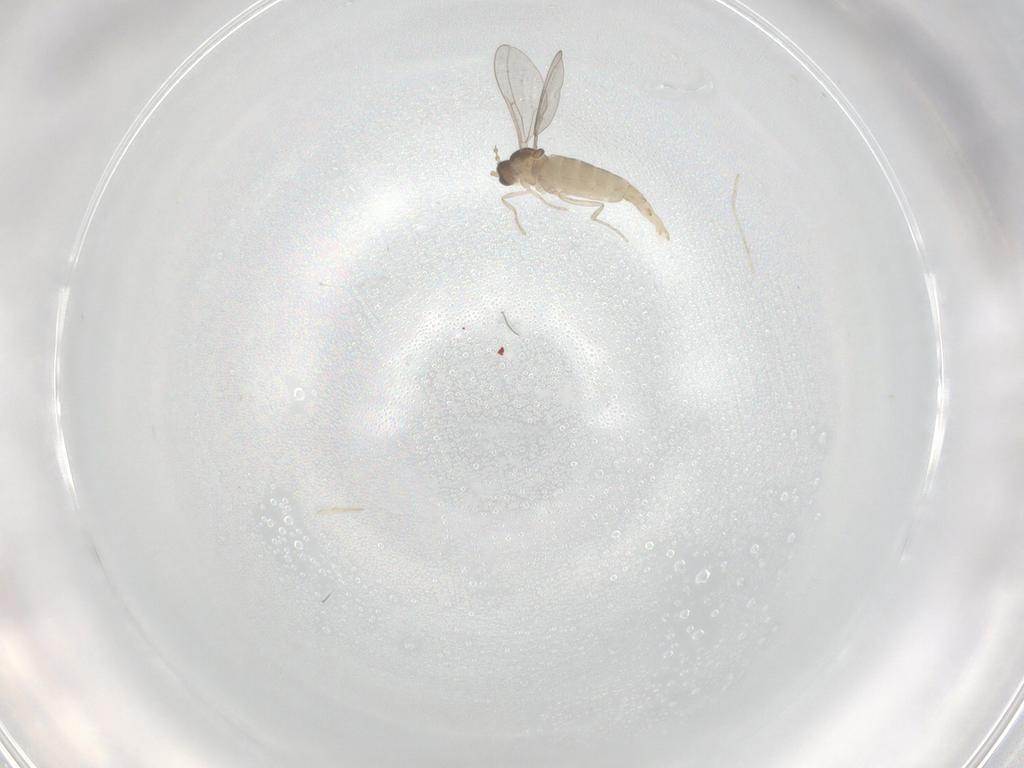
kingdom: Animalia
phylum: Arthropoda
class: Insecta
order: Diptera
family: Cecidomyiidae
